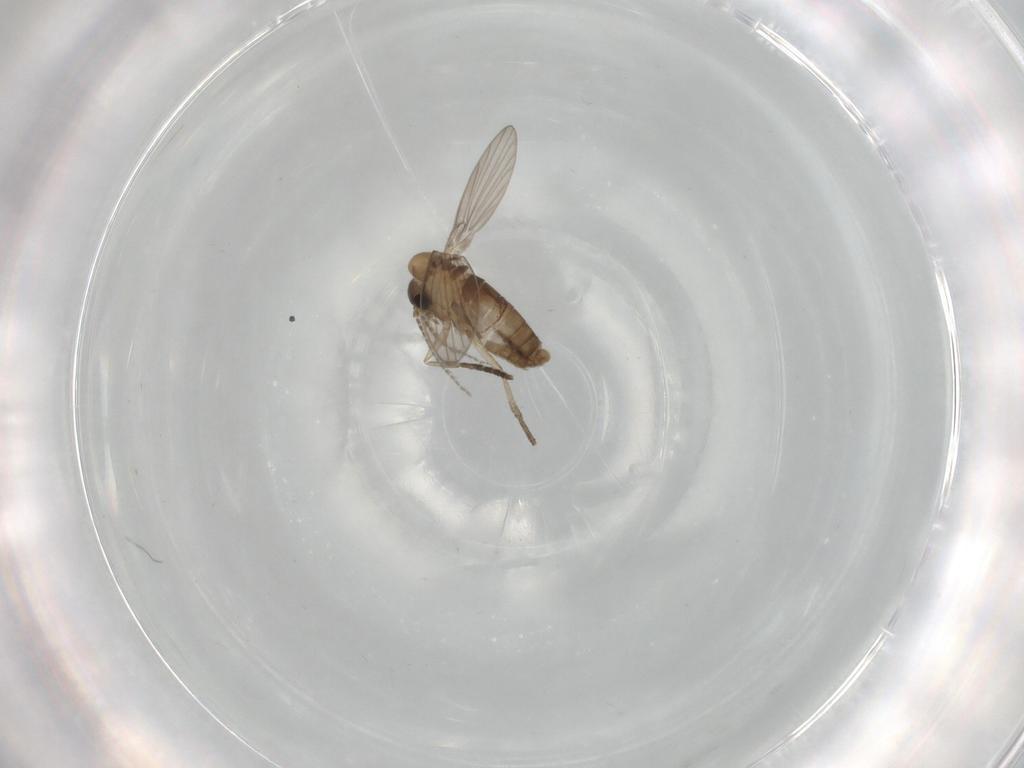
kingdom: Animalia
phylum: Arthropoda
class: Insecta
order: Diptera
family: Psychodidae
